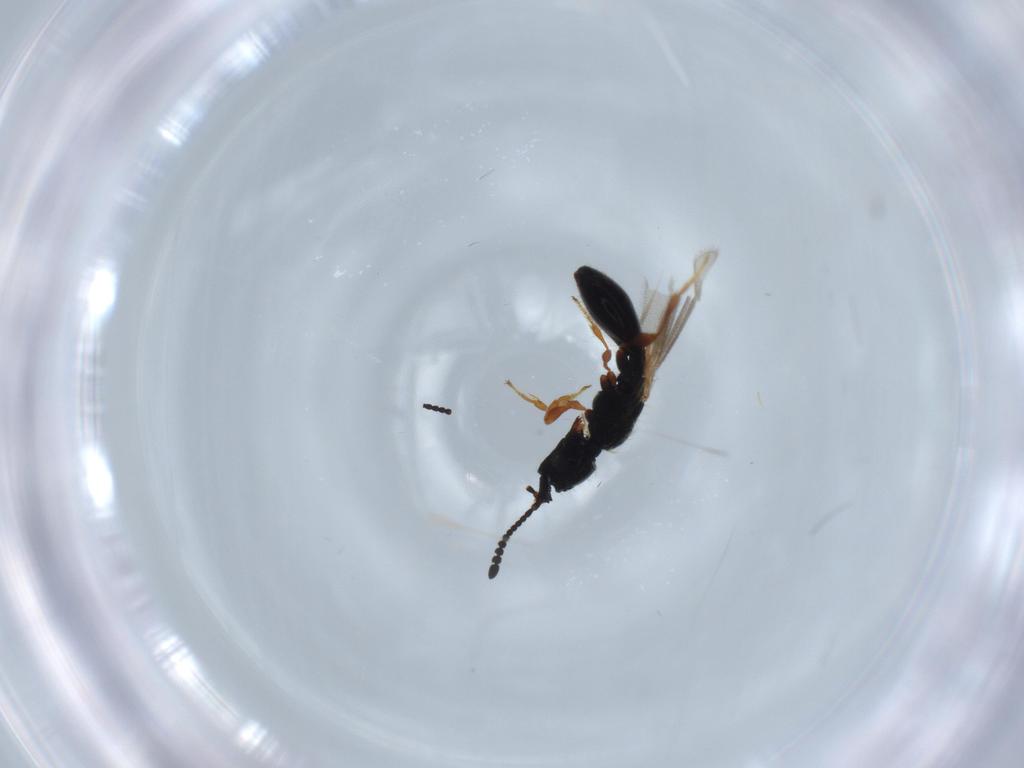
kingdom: Animalia
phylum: Arthropoda
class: Insecta
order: Hymenoptera
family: Diapriidae
